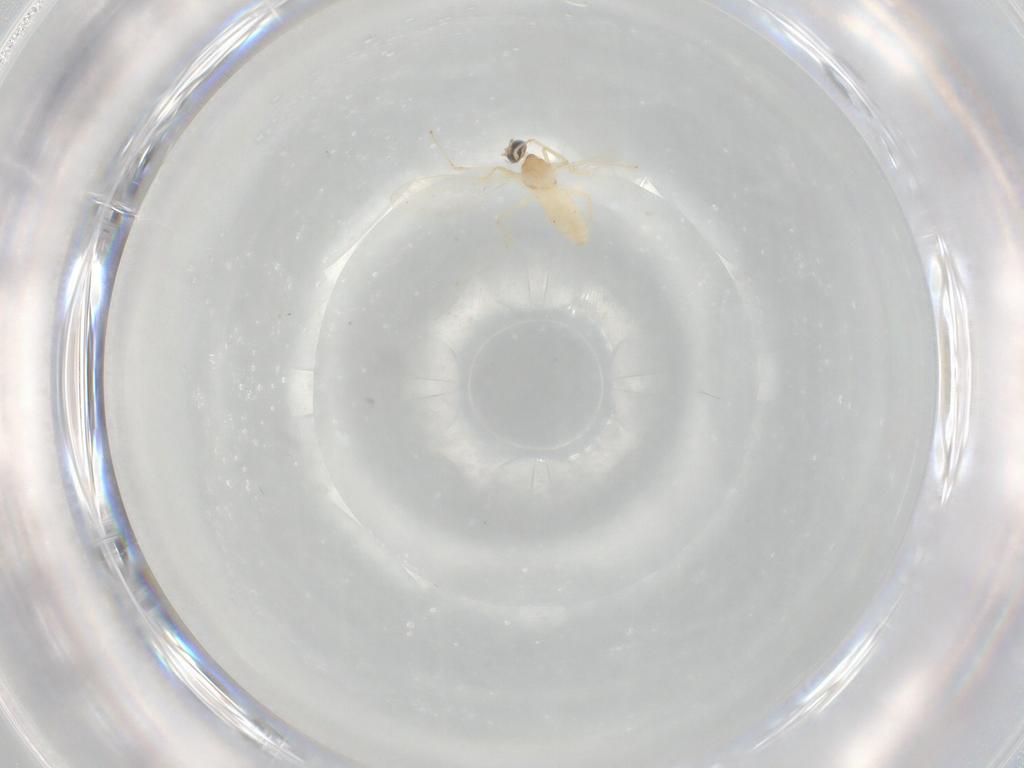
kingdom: Animalia
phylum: Arthropoda
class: Insecta
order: Diptera
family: Cecidomyiidae
